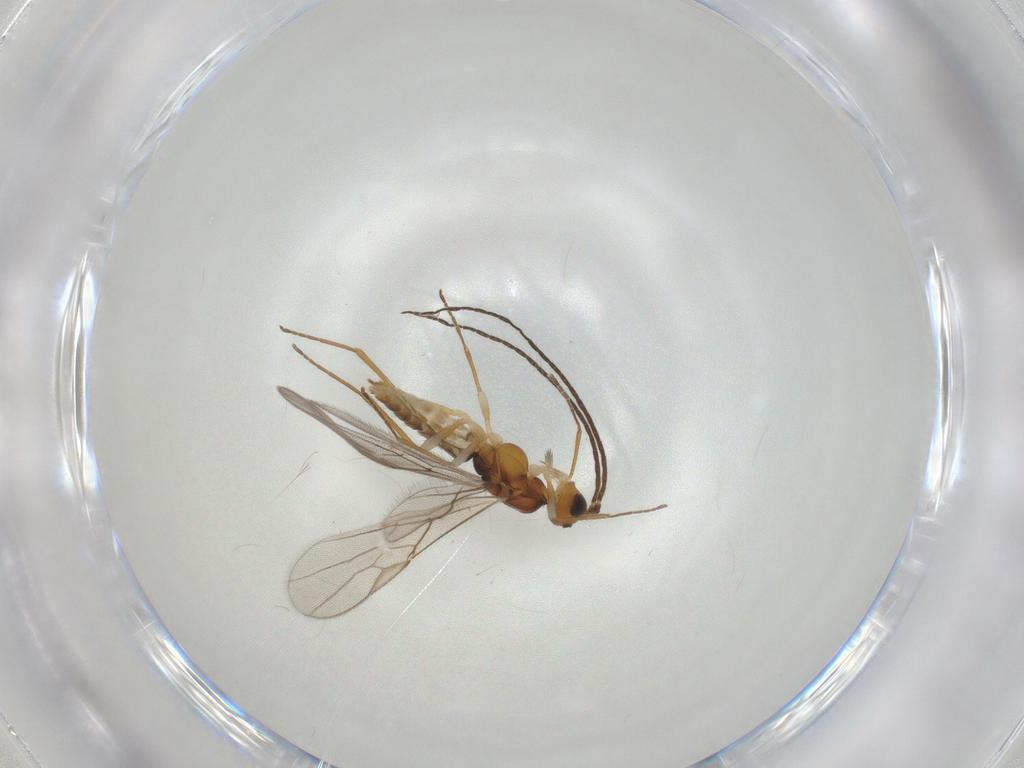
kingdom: Animalia
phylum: Arthropoda
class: Insecta
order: Hymenoptera
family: Braconidae
